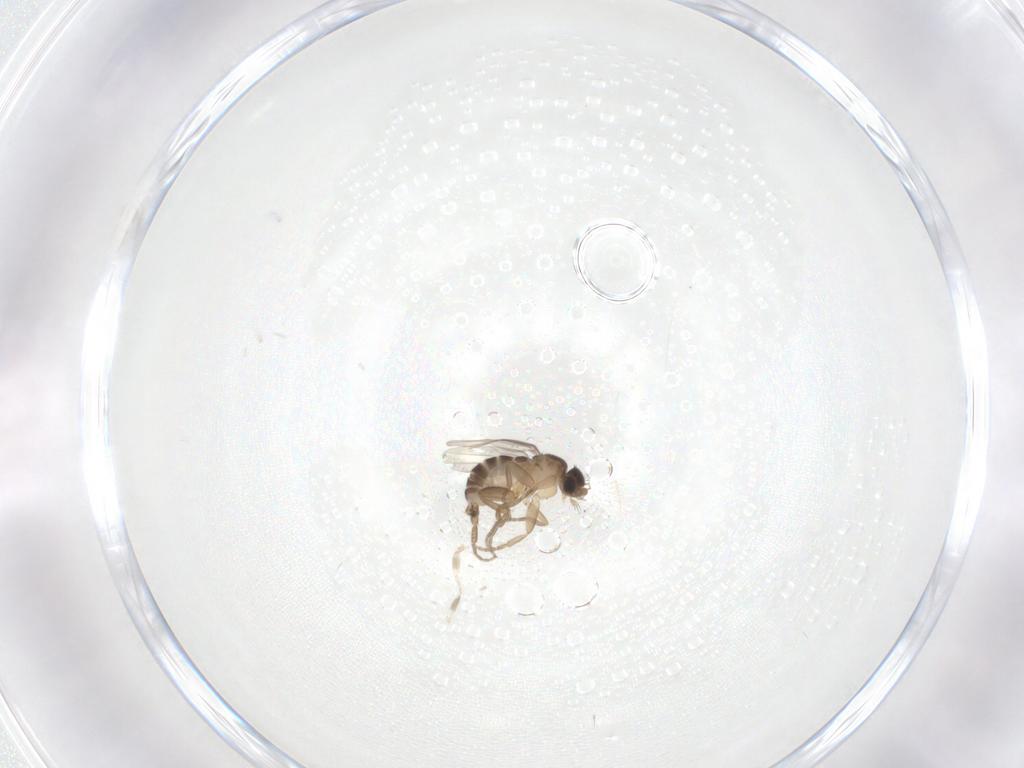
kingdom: Animalia
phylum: Arthropoda
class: Insecta
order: Diptera
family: Phoridae
